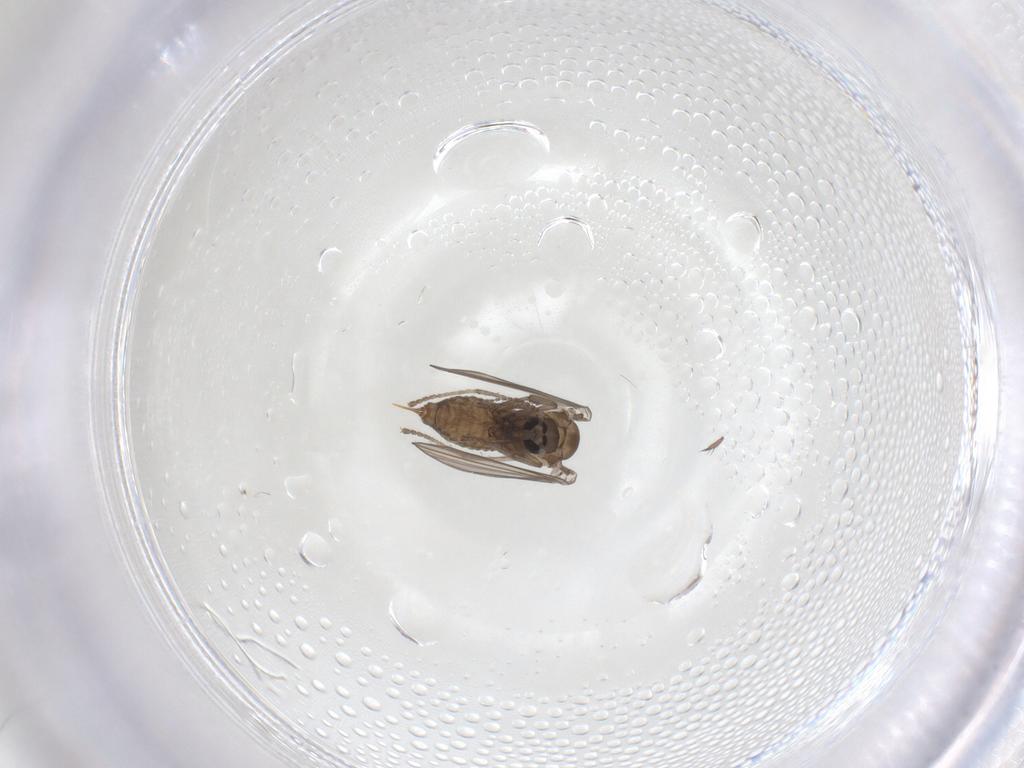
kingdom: Animalia
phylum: Arthropoda
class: Insecta
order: Diptera
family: Psychodidae
